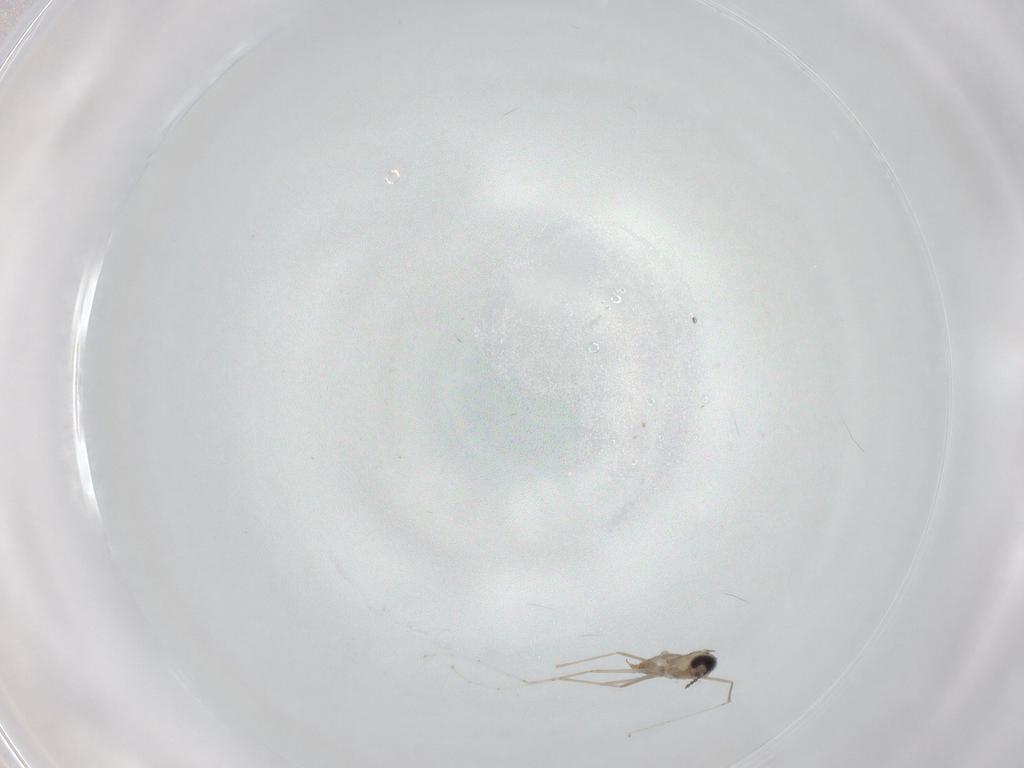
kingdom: Animalia
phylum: Arthropoda
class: Insecta
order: Diptera
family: Cecidomyiidae
